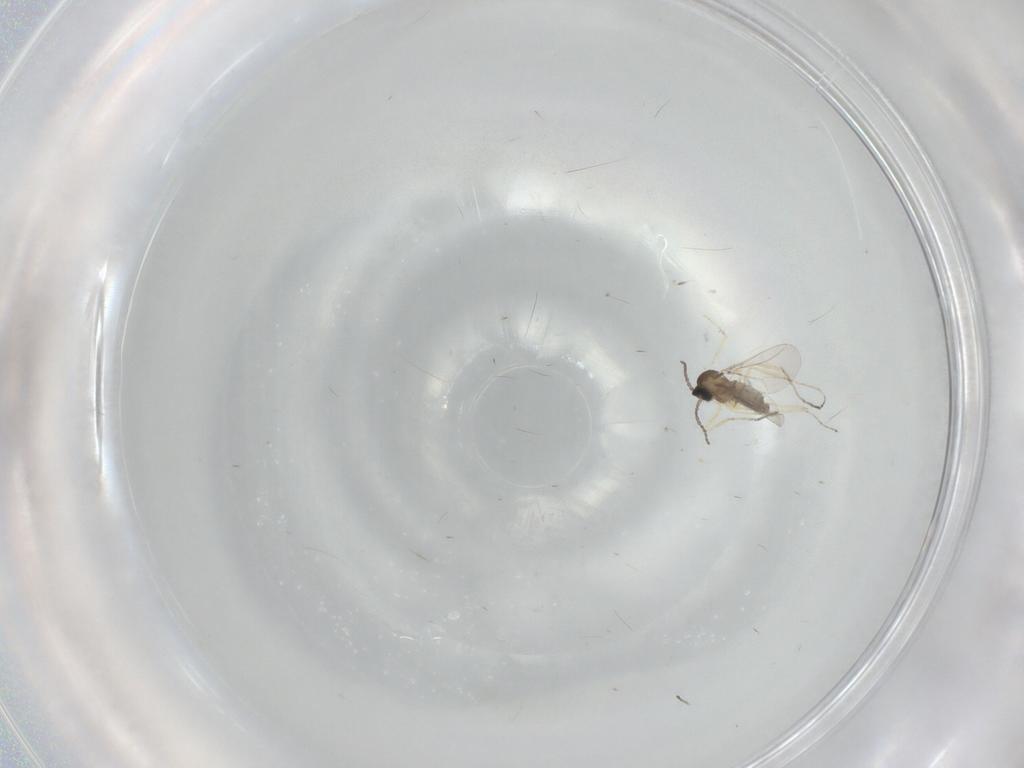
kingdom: Animalia
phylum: Arthropoda
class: Insecta
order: Diptera
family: Cecidomyiidae
